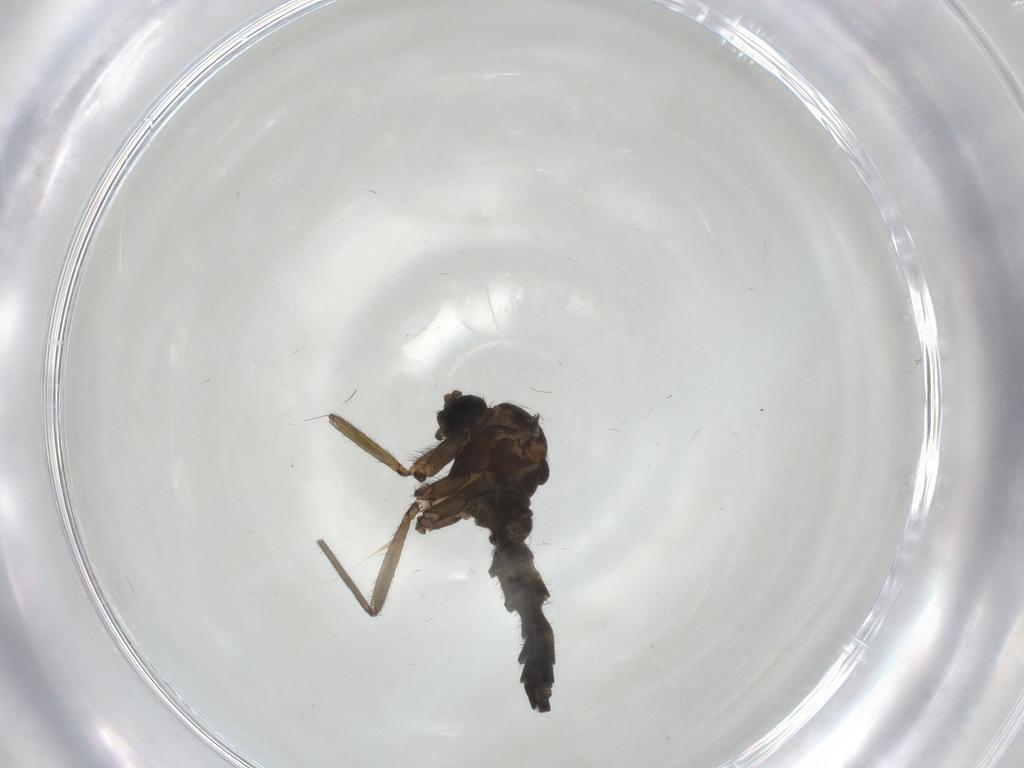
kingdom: Animalia
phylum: Arthropoda
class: Insecta
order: Diptera
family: Sciaridae
